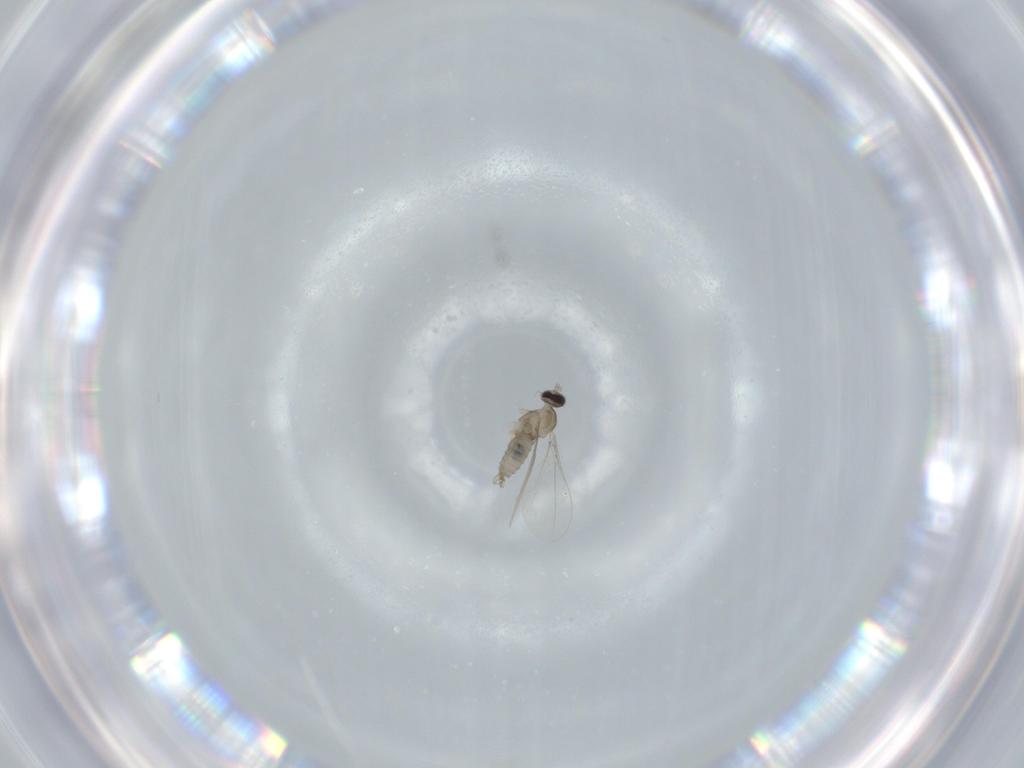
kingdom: Animalia
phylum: Arthropoda
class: Insecta
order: Diptera
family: Cecidomyiidae
